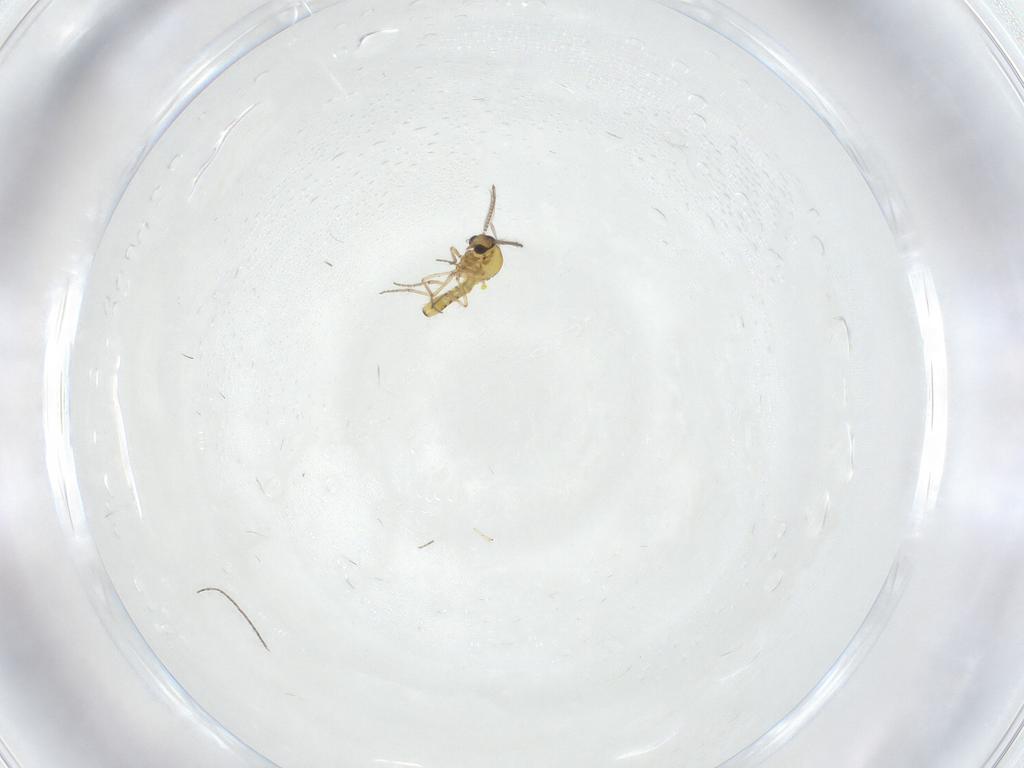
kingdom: Animalia
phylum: Arthropoda
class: Insecta
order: Diptera
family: Ceratopogonidae
